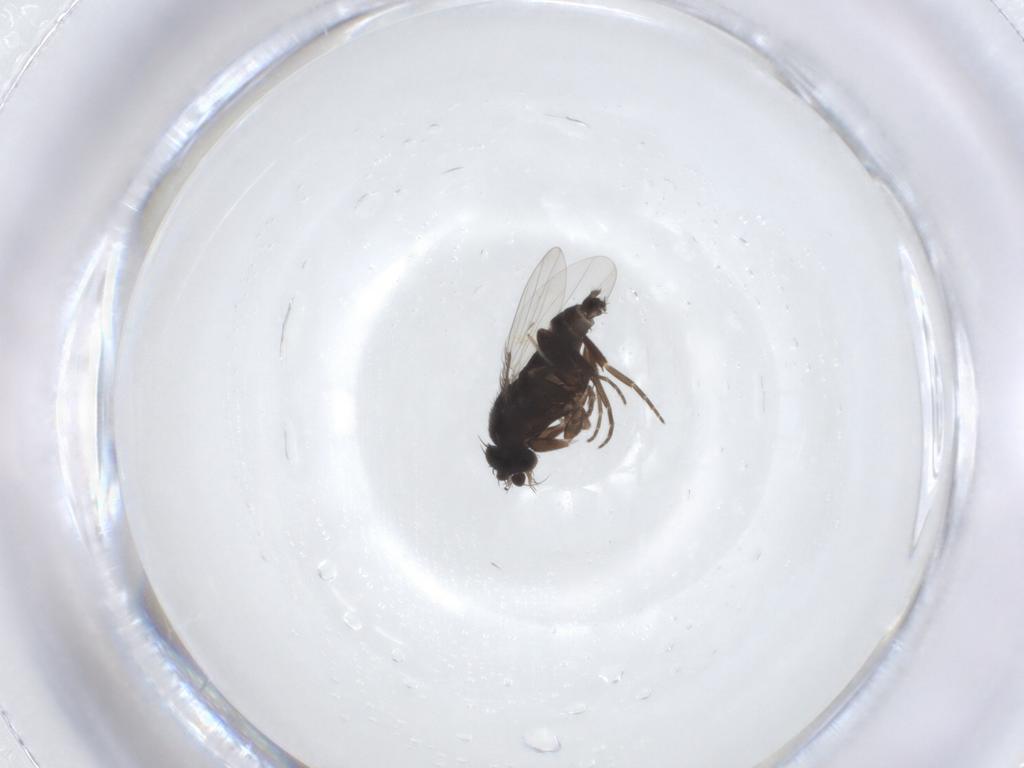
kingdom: Animalia
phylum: Arthropoda
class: Insecta
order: Diptera
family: Phoridae
